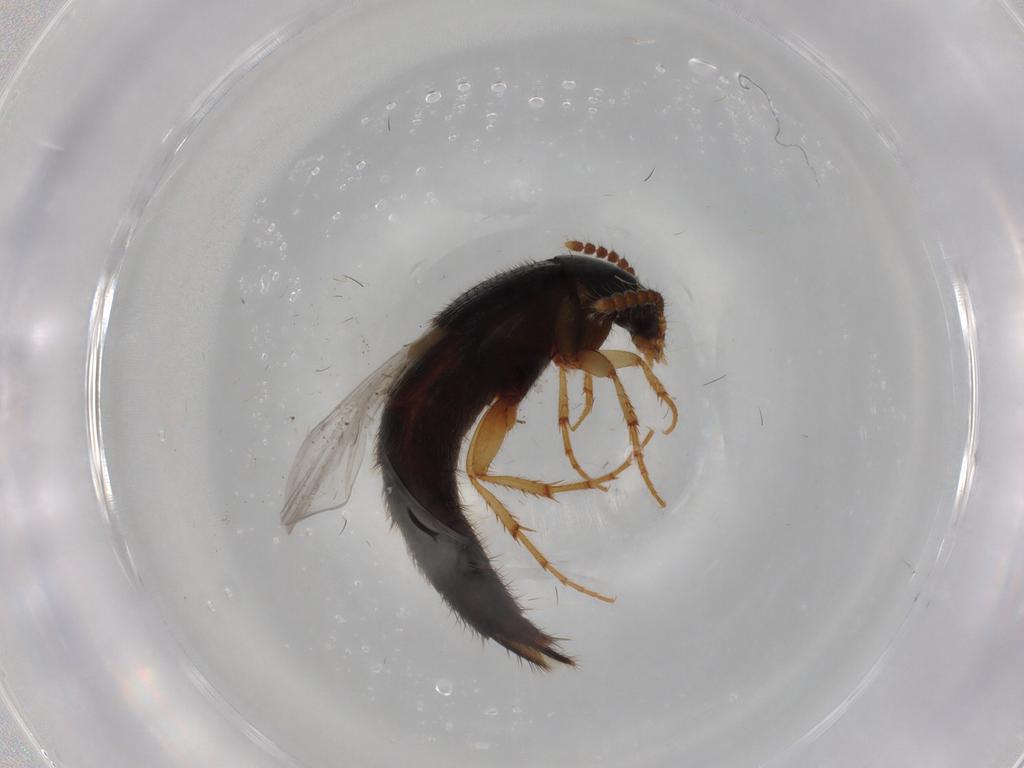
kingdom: Animalia
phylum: Arthropoda
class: Insecta
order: Coleoptera
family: Staphylinidae
